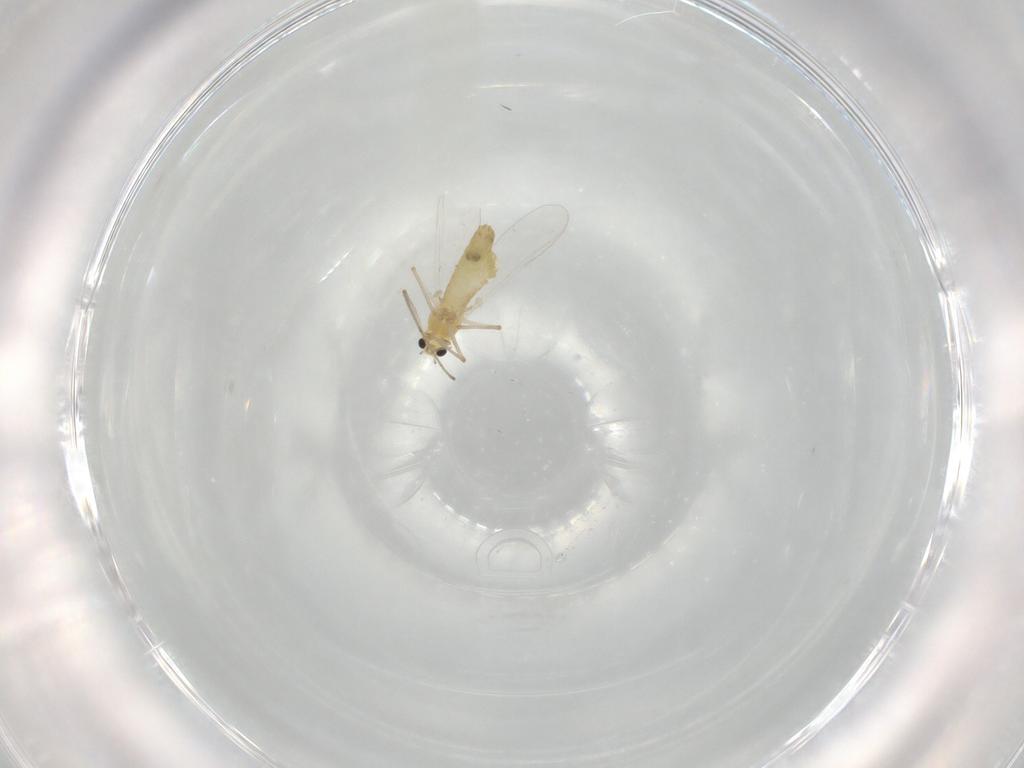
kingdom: Animalia
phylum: Arthropoda
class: Insecta
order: Diptera
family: Chironomidae
